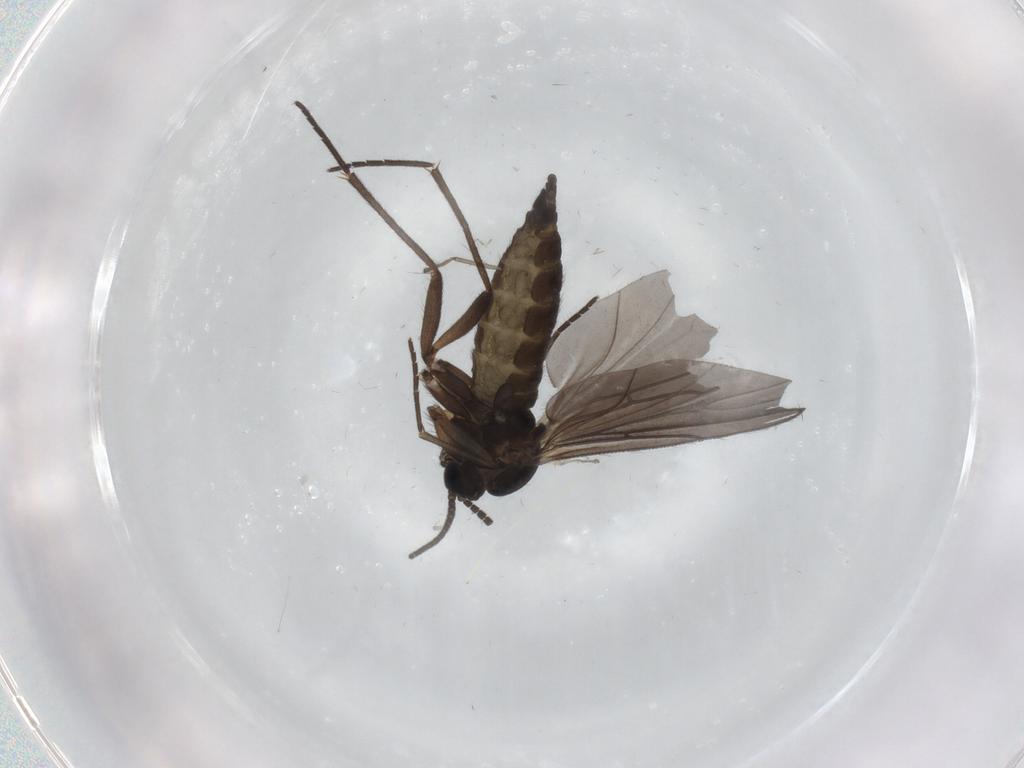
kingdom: Animalia
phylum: Arthropoda
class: Insecta
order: Diptera
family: Sciaridae
